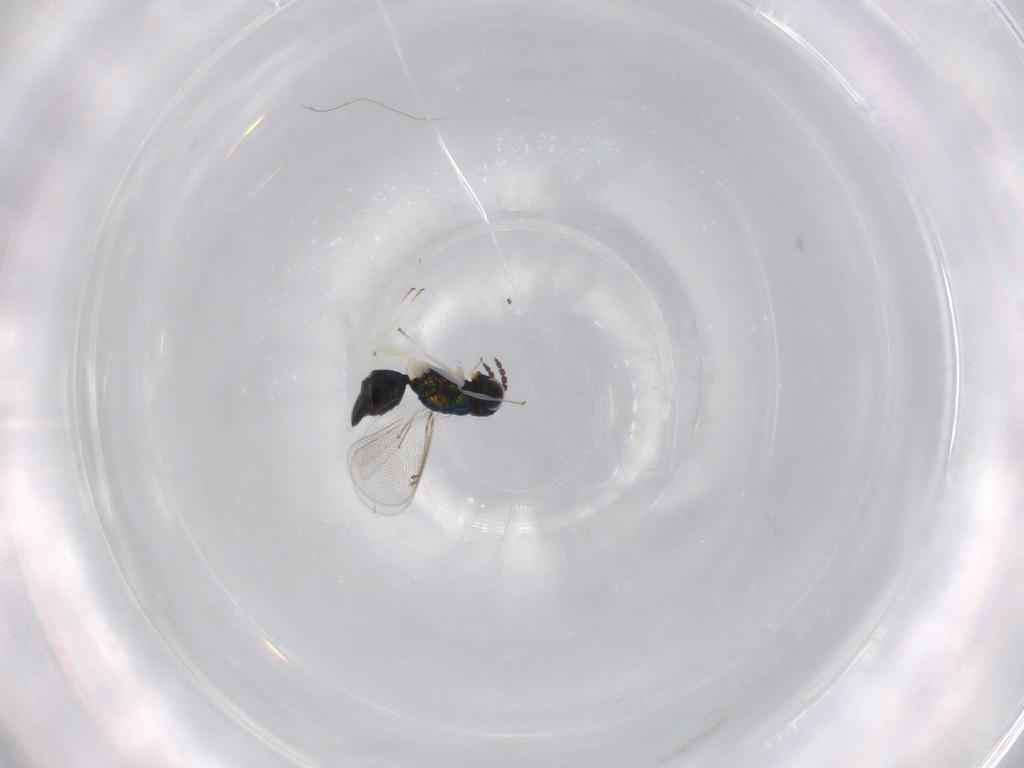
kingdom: Animalia
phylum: Arthropoda
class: Insecta
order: Hymenoptera
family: Eulophidae
